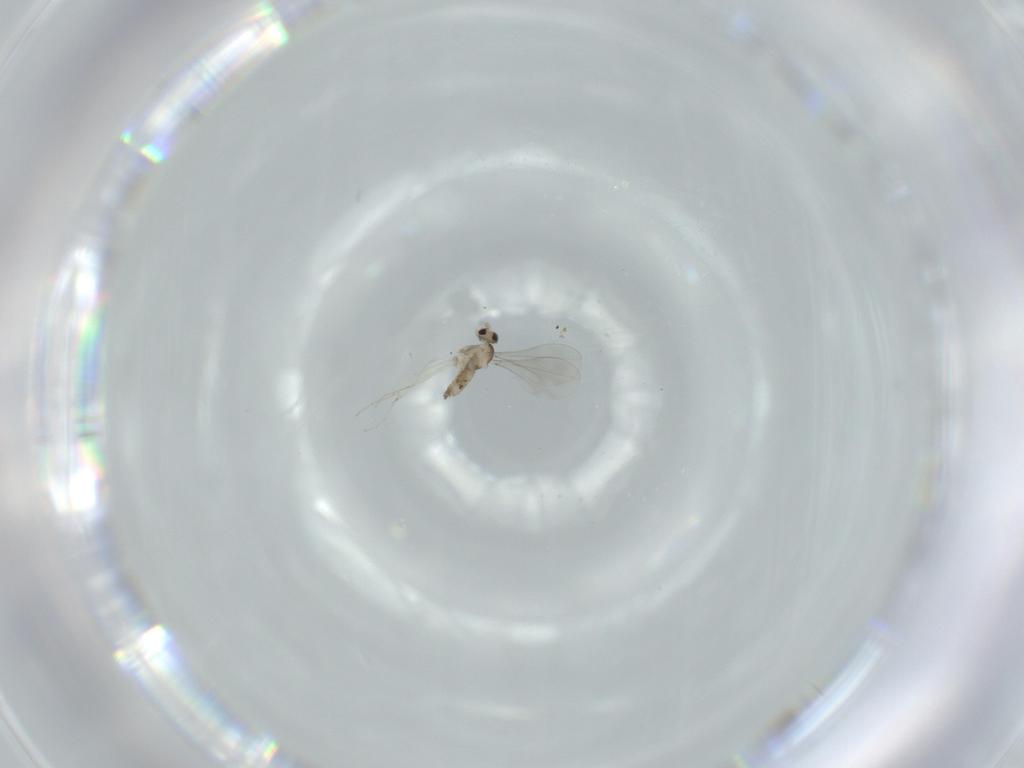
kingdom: Animalia
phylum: Arthropoda
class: Insecta
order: Diptera
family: Cecidomyiidae
